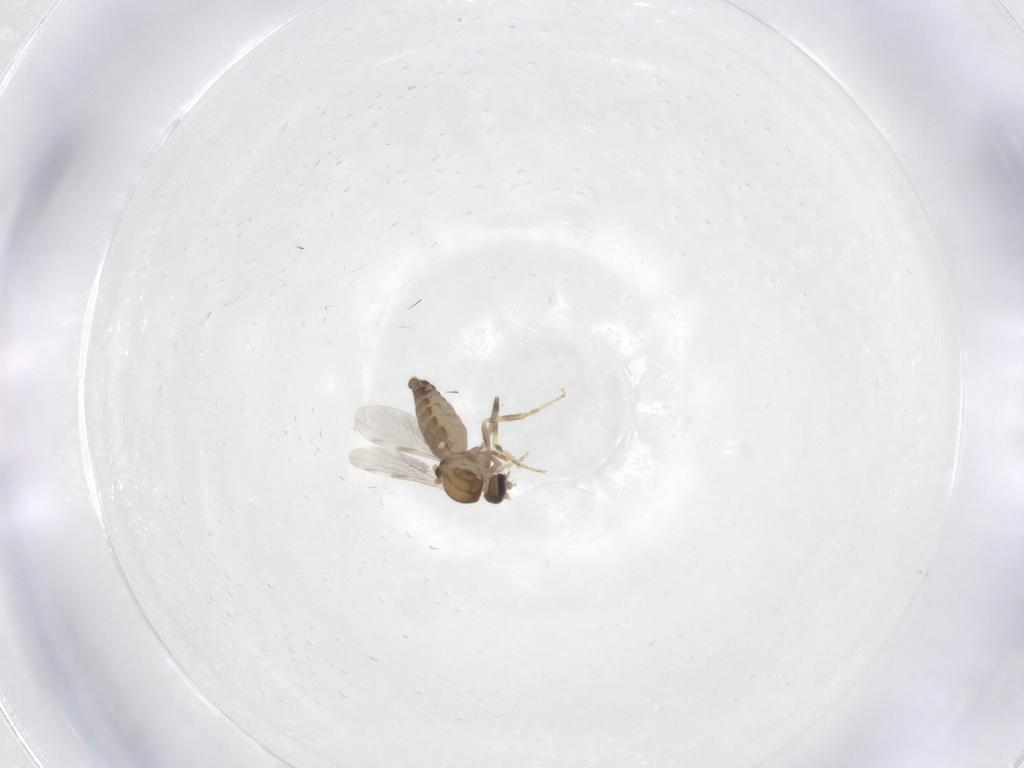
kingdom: Animalia
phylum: Arthropoda
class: Insecta
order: Diptera
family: Ceratopogonidae
